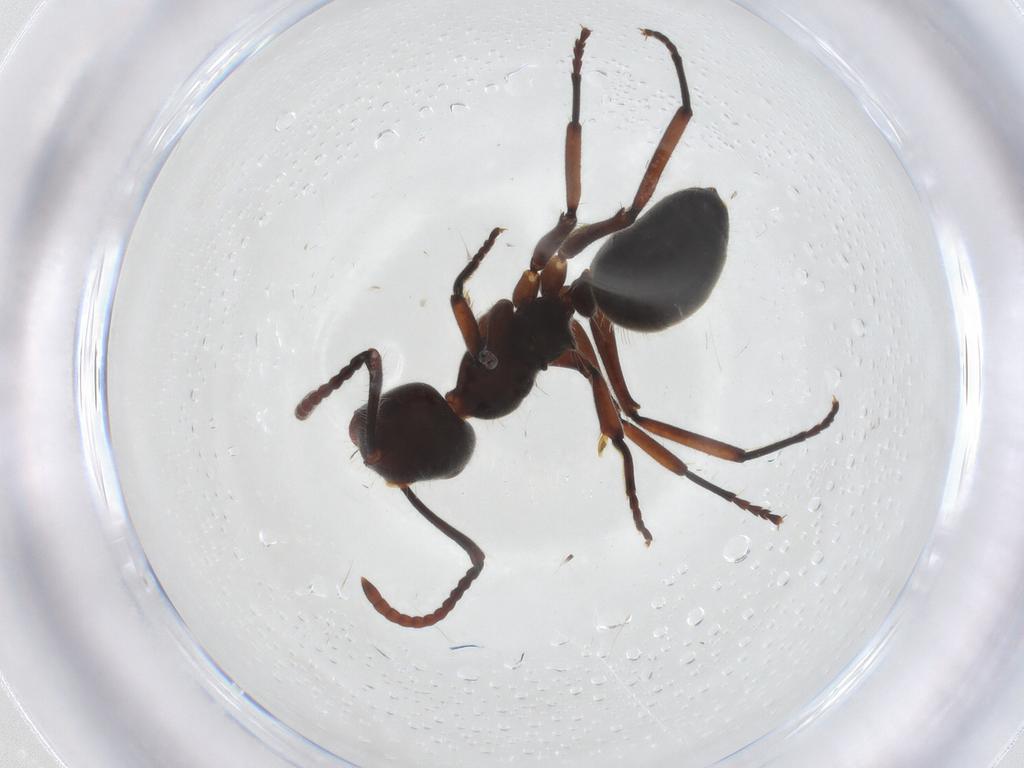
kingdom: Animalia
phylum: Arthropoda
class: Insecta
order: Hymenoptera
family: Formicidae
